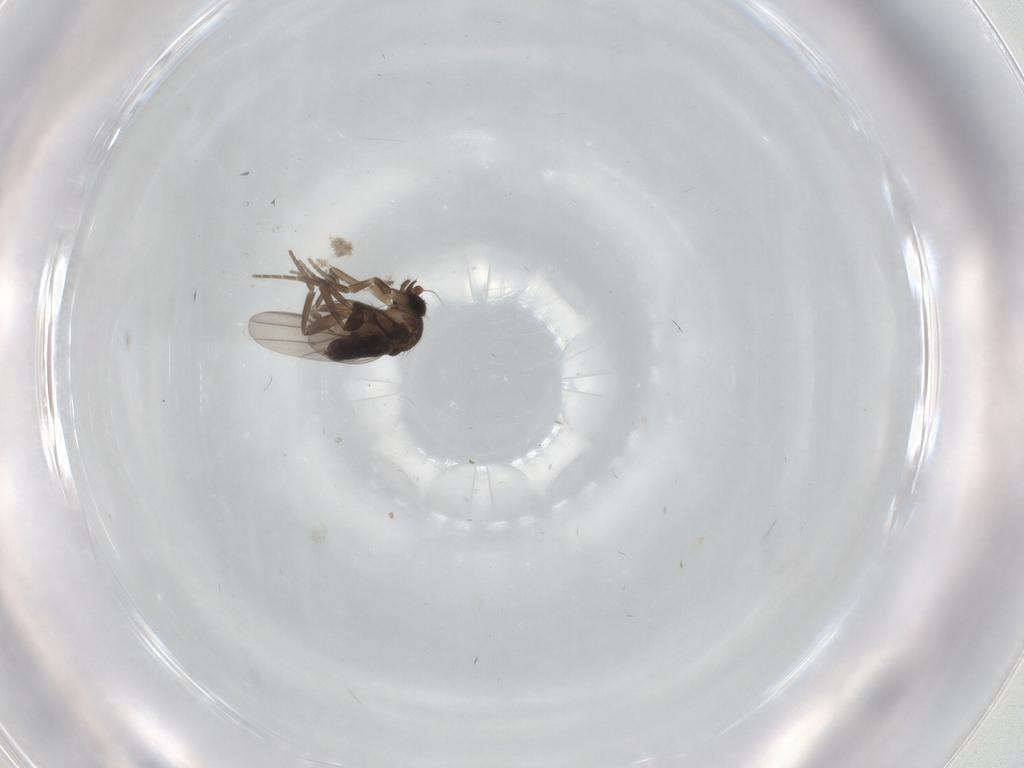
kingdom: Animalia
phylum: Arthropoda
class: Insecta
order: Diptera
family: Phoridae
